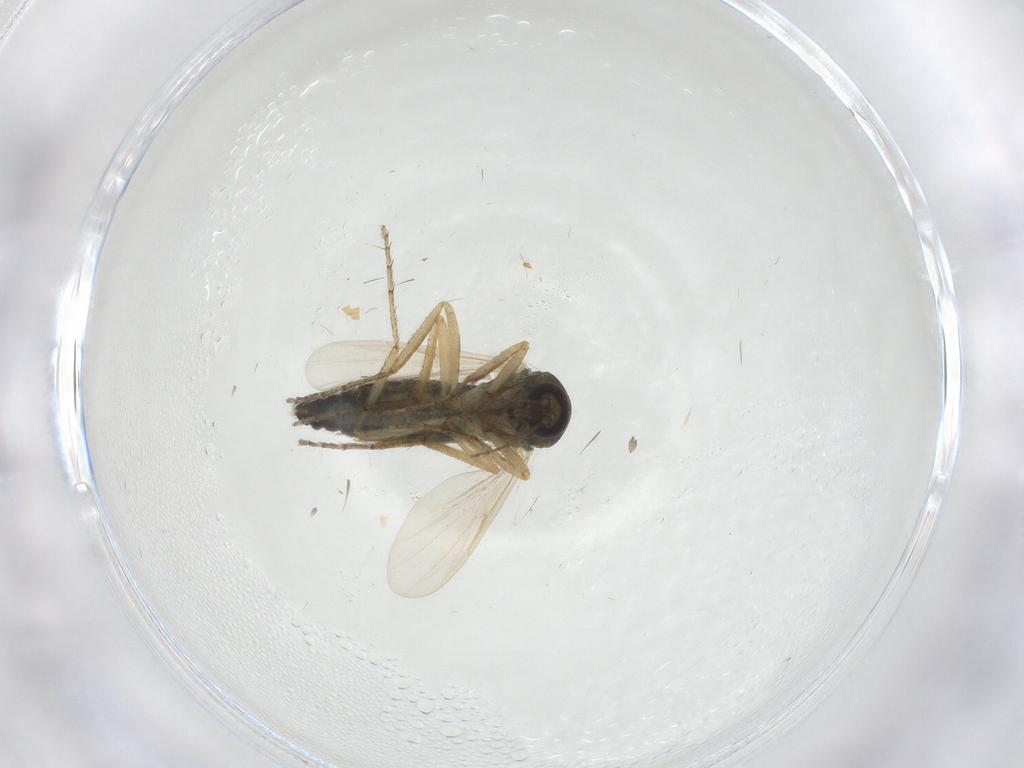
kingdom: Animalia
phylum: Arthropoda
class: Insecta
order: Diptera
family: Ceratopogonidae
